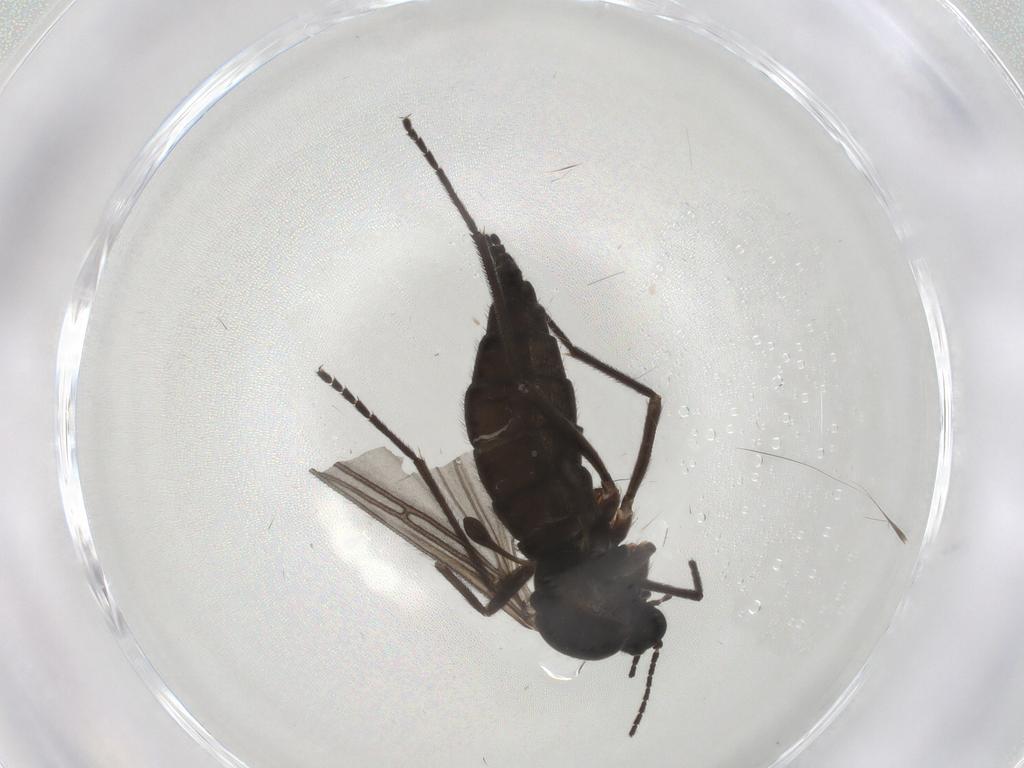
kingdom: Animalia
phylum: Arthropoda
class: Insecta
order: Diptera
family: Agromyzidae
